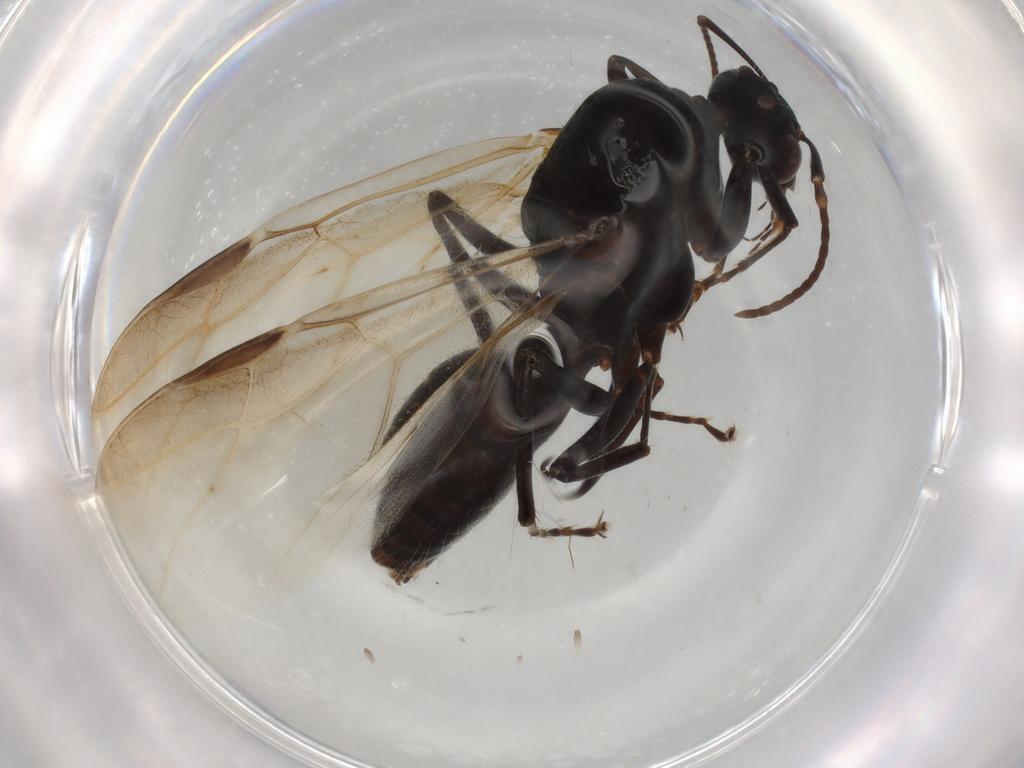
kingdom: Animalia
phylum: Arthropoda
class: Insecta
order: Hymenoptera
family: Formicidae
